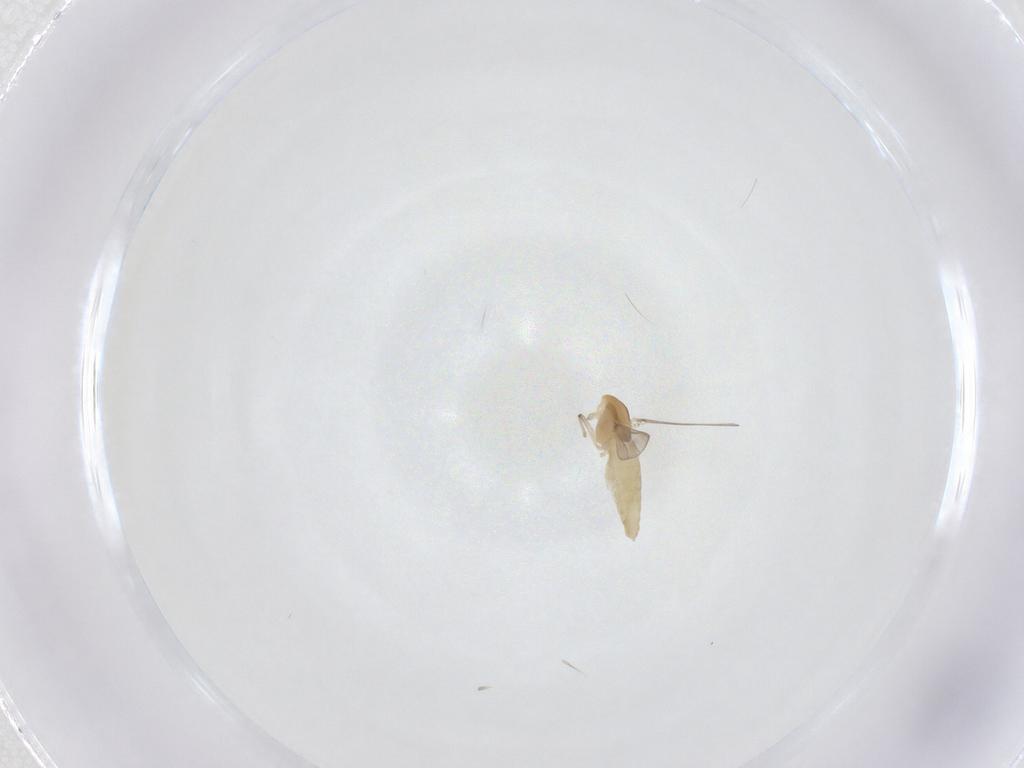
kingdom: Animalia
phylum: Arthropoda
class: Insecta
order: Diptera
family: Chironomidae
